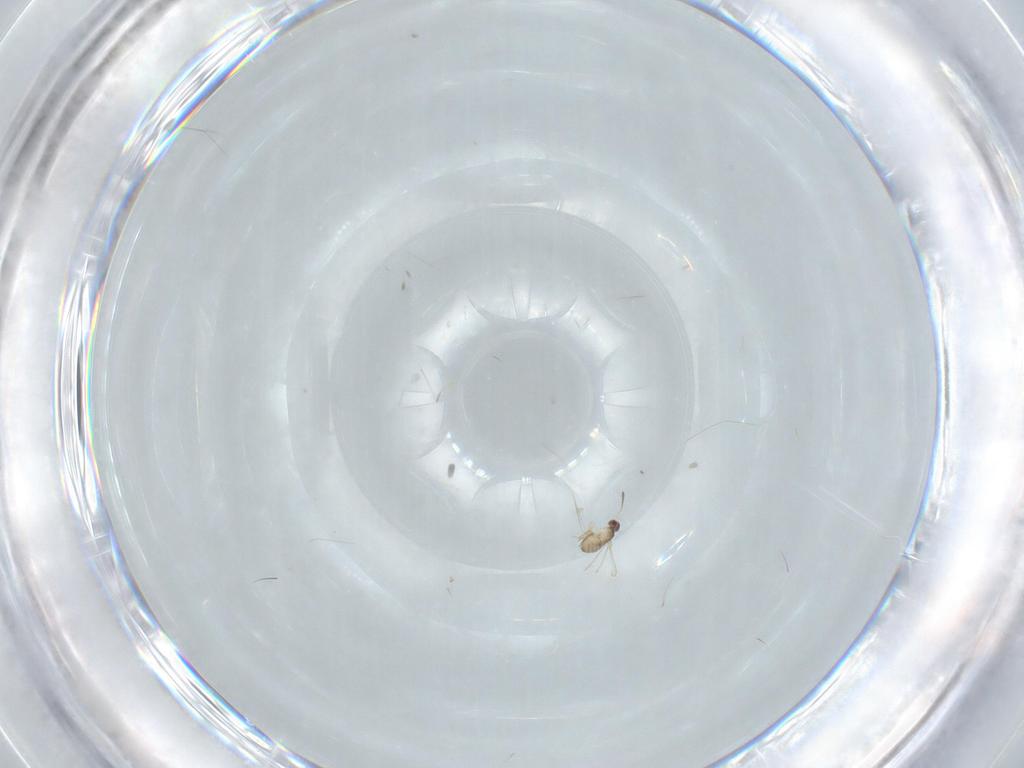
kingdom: Animalia
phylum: Arthropoda
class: Insecta
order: Hymenoptera
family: Mymaridae
